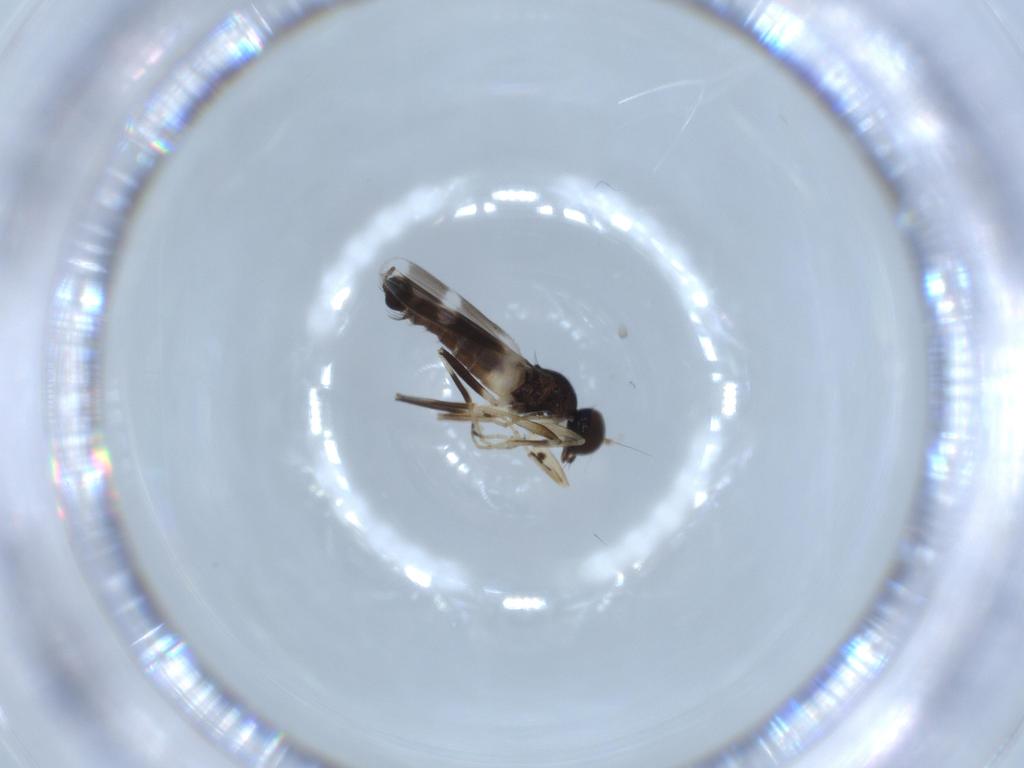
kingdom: Animalia
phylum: Arthropoda
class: Insecta
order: Diptera
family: Hybotidae
